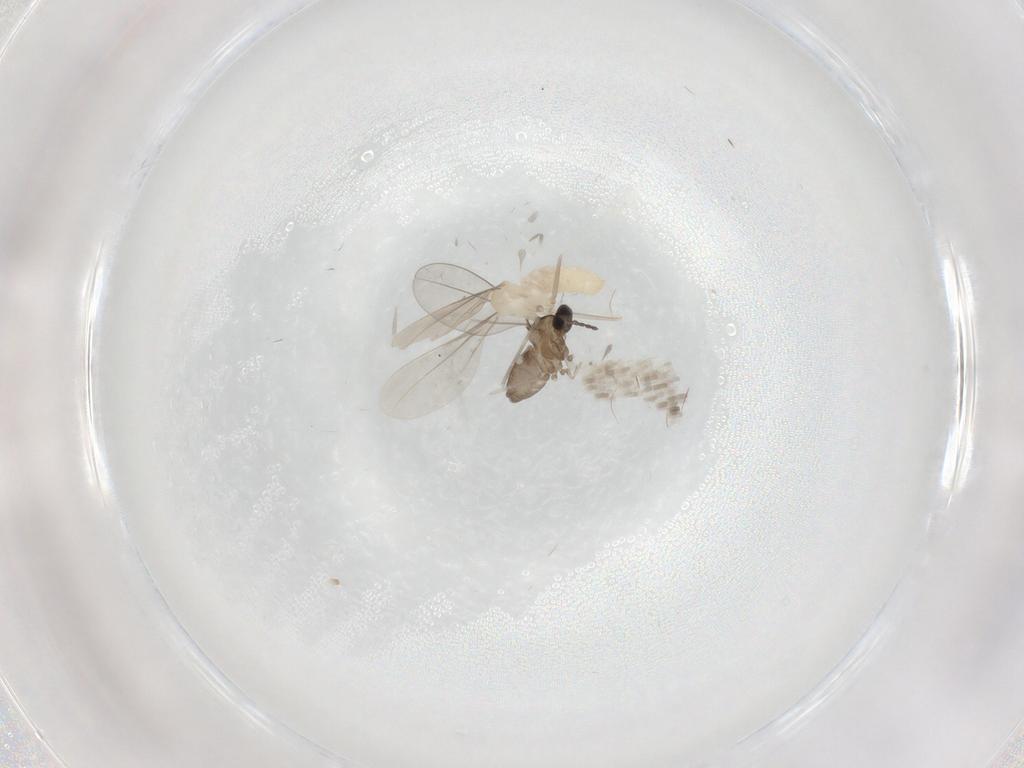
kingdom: Animalia
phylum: Arthropoda
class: Insecta
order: Diptera
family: Cecidomyiidae
